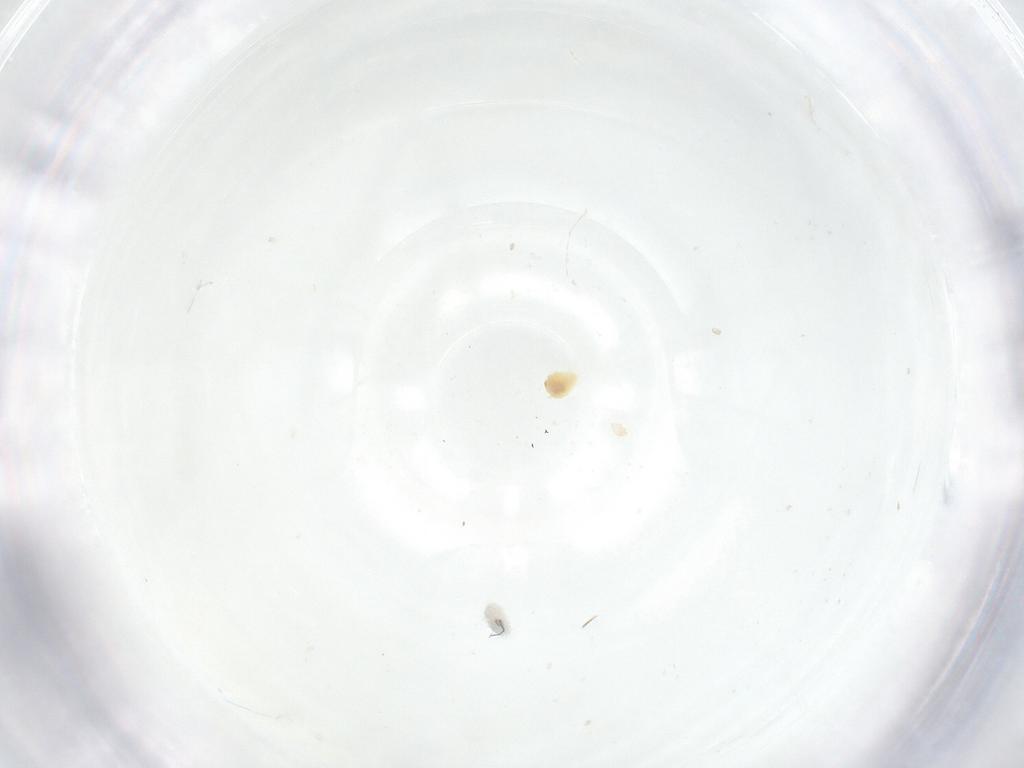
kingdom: Animalia
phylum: Arthropoda
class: Insecta
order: Diptera
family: Fergusoninidae
